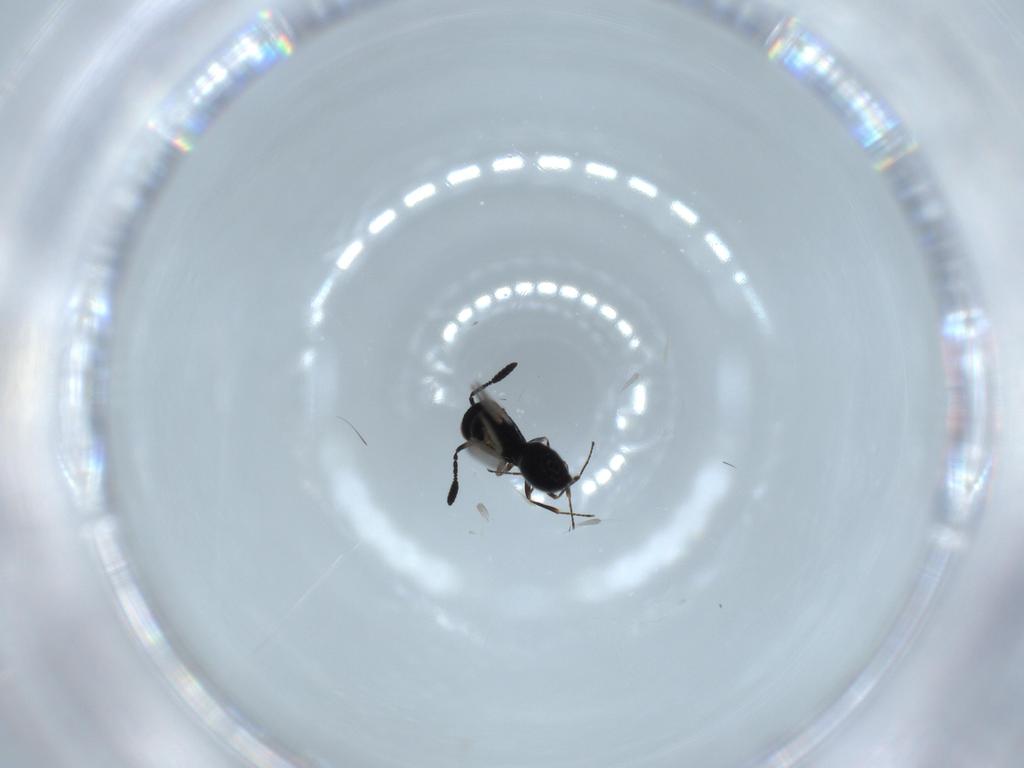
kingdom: Animalia
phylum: Arthropoda
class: Insecta
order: Hymenoptera
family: Scelionidae
